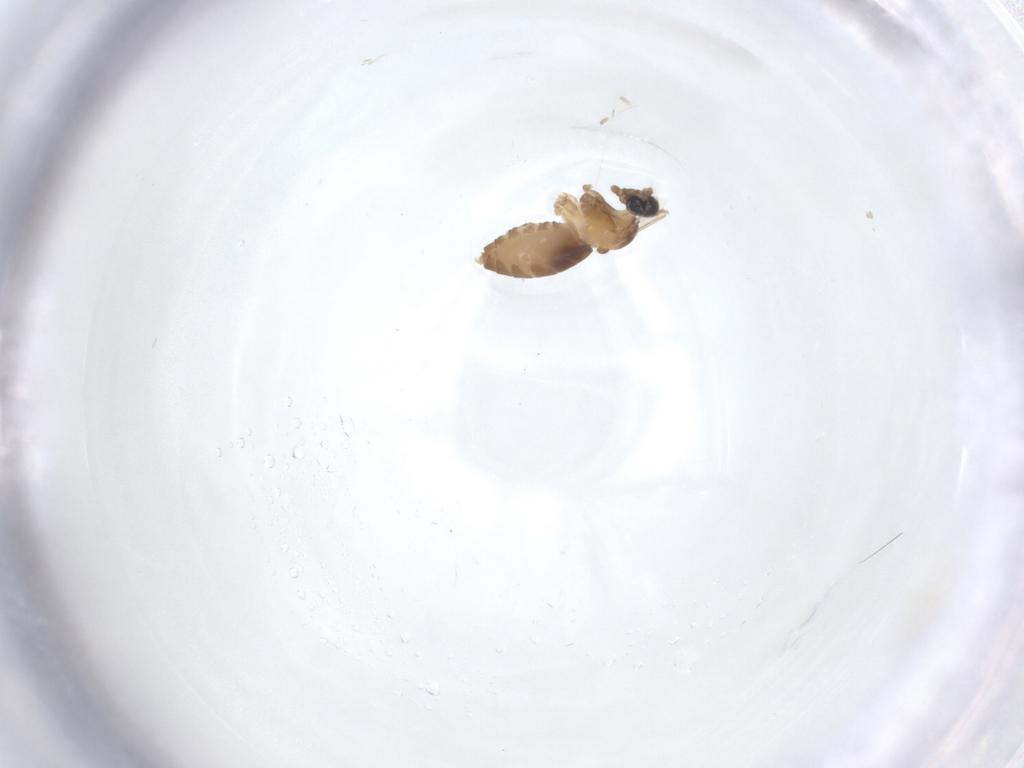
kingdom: Animalia
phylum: Arthropoda
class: Insecta
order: Diptera
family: Cecidomyiidae
